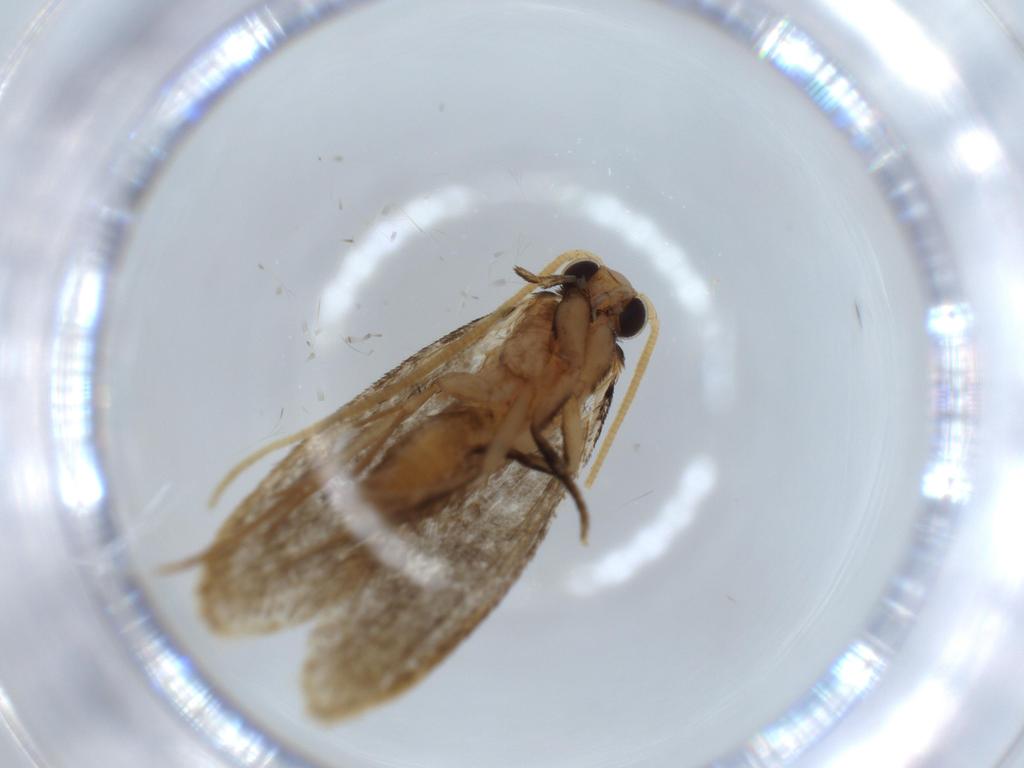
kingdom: Animalia
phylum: Arthropoda
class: Insecta
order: Lepidoptera
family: Tineidae
